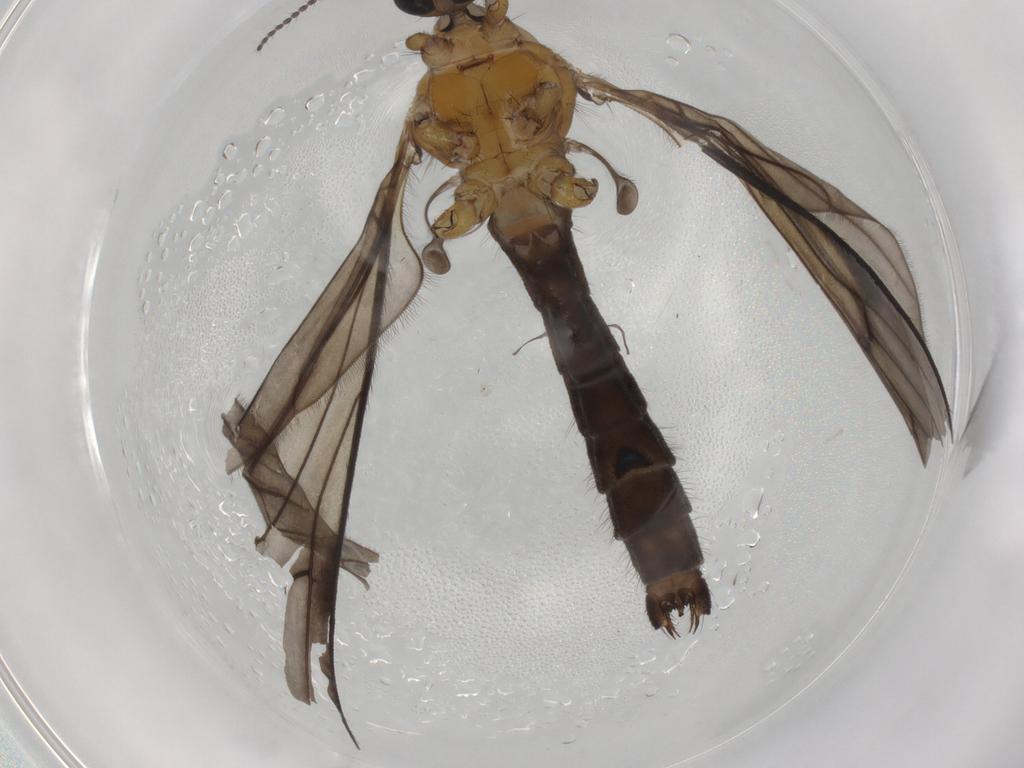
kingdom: Animalia
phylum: Arthropoda
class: Insecta
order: Diptera
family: Limoniidae
